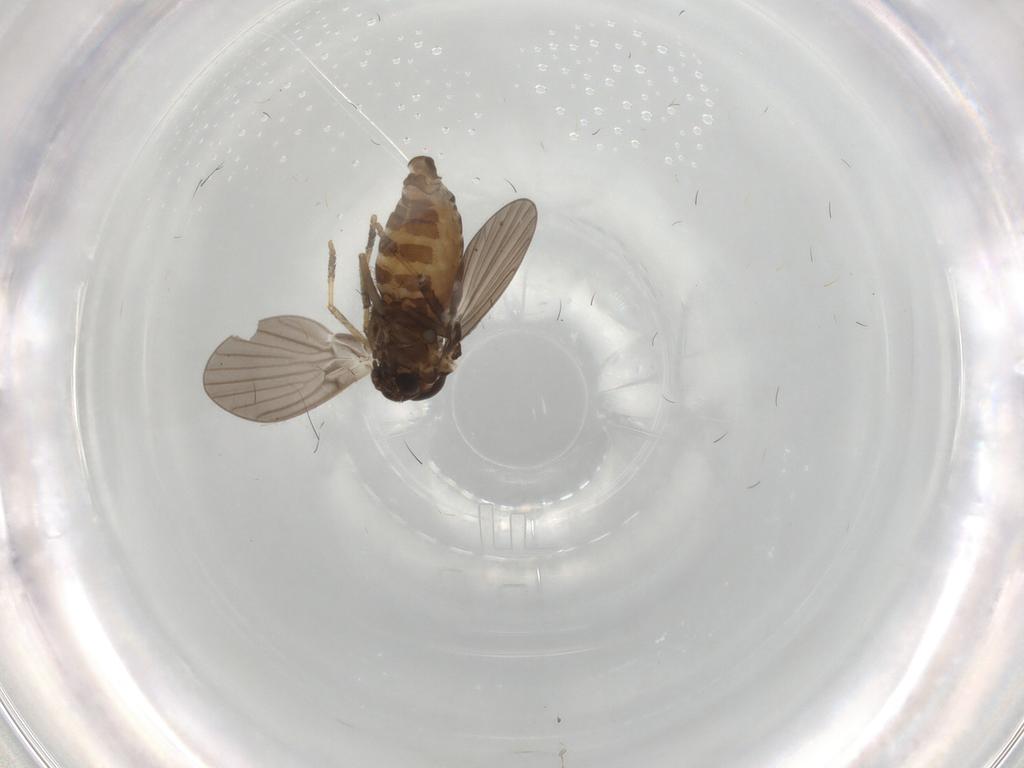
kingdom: Animalia
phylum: Arthropoda
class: Insecta
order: Diptera
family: Psychodidae
